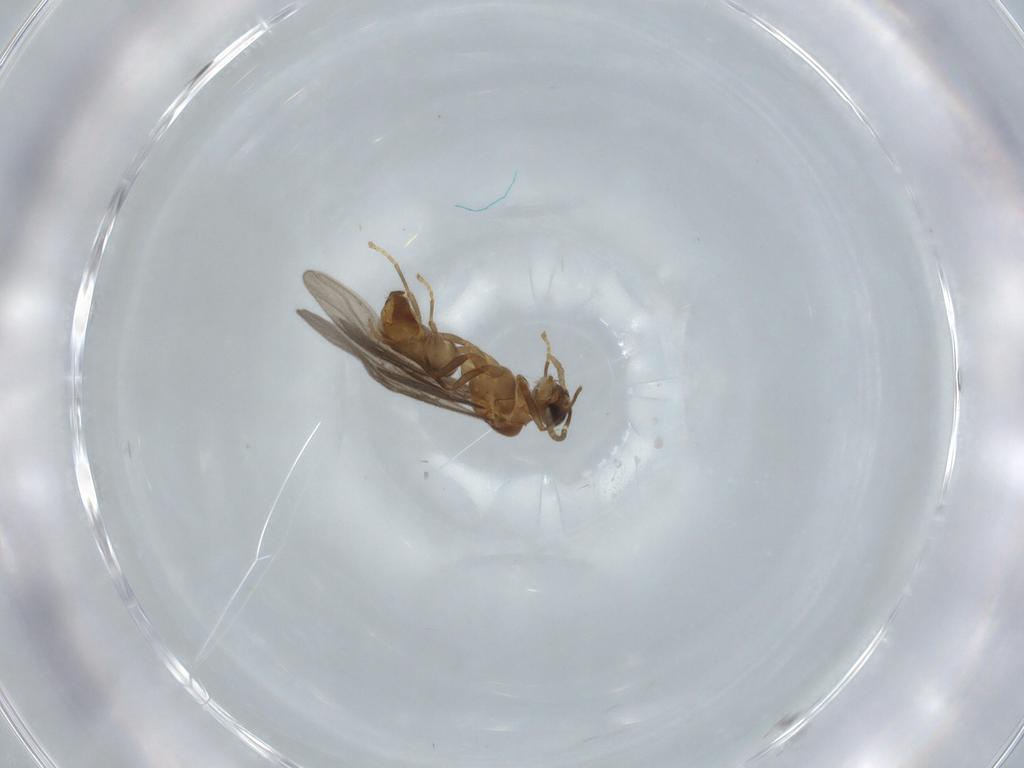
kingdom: Animalia
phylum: Arthropoda
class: Insecta
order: Hymenoptera
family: Formicidae
